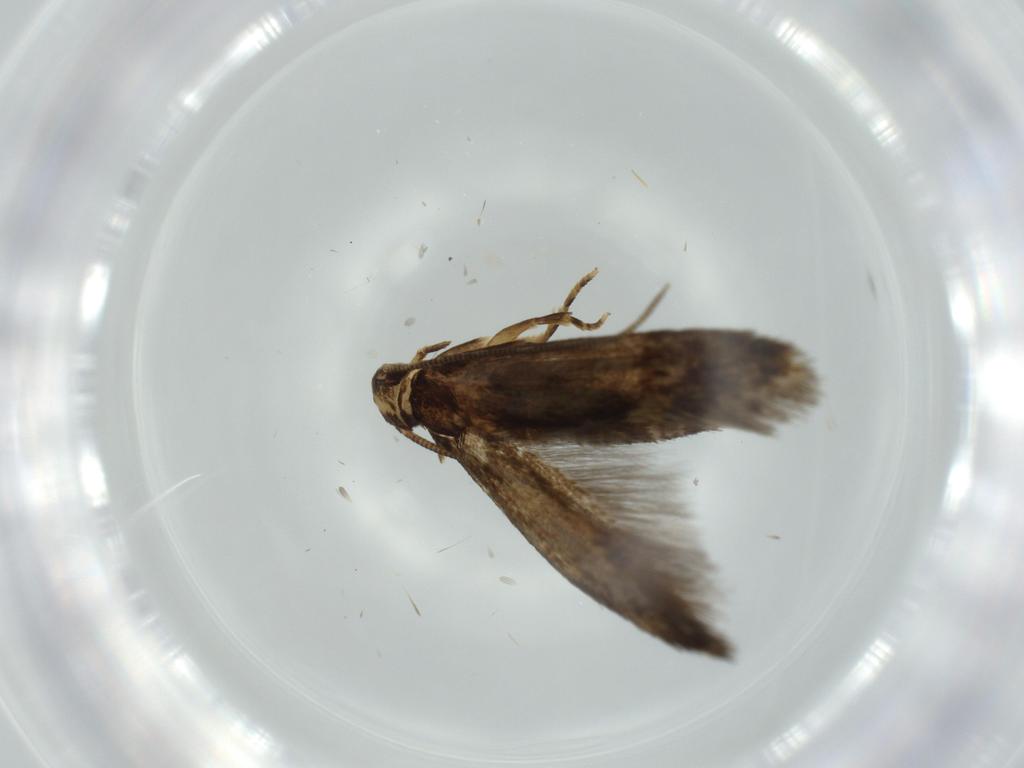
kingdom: Animalia
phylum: Arthropoda
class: Insecta
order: Lepidoptera
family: Tineidae
